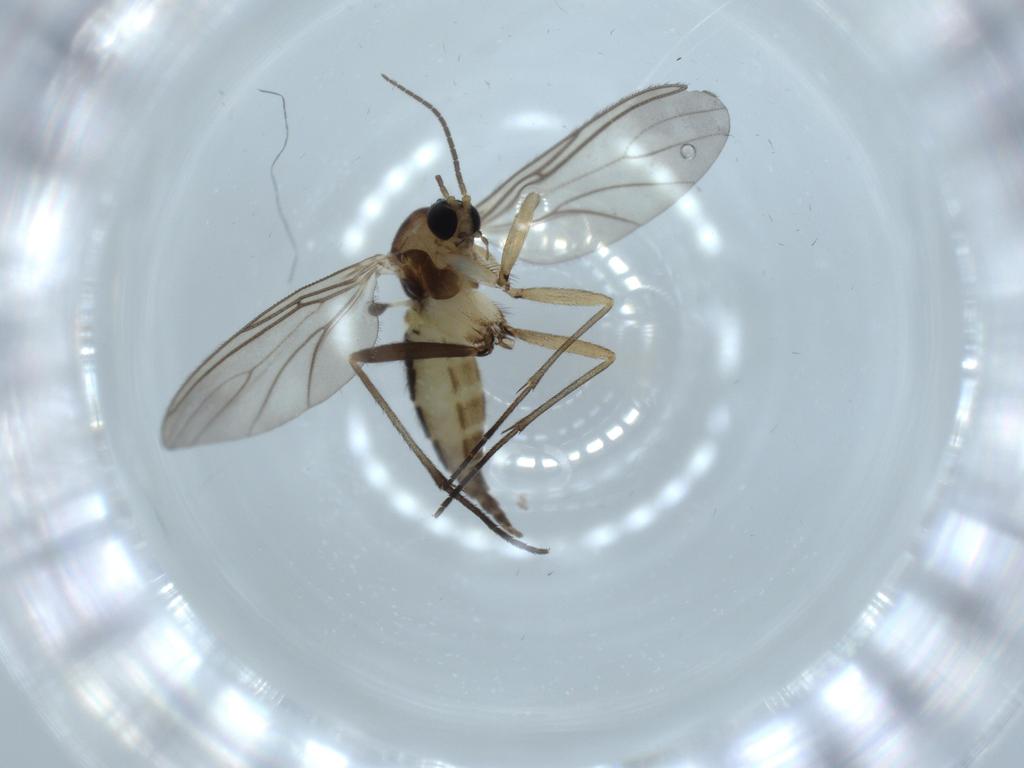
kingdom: Animalia
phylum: Arthropoda
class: Insecta
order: Diptera
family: Sciaridae
